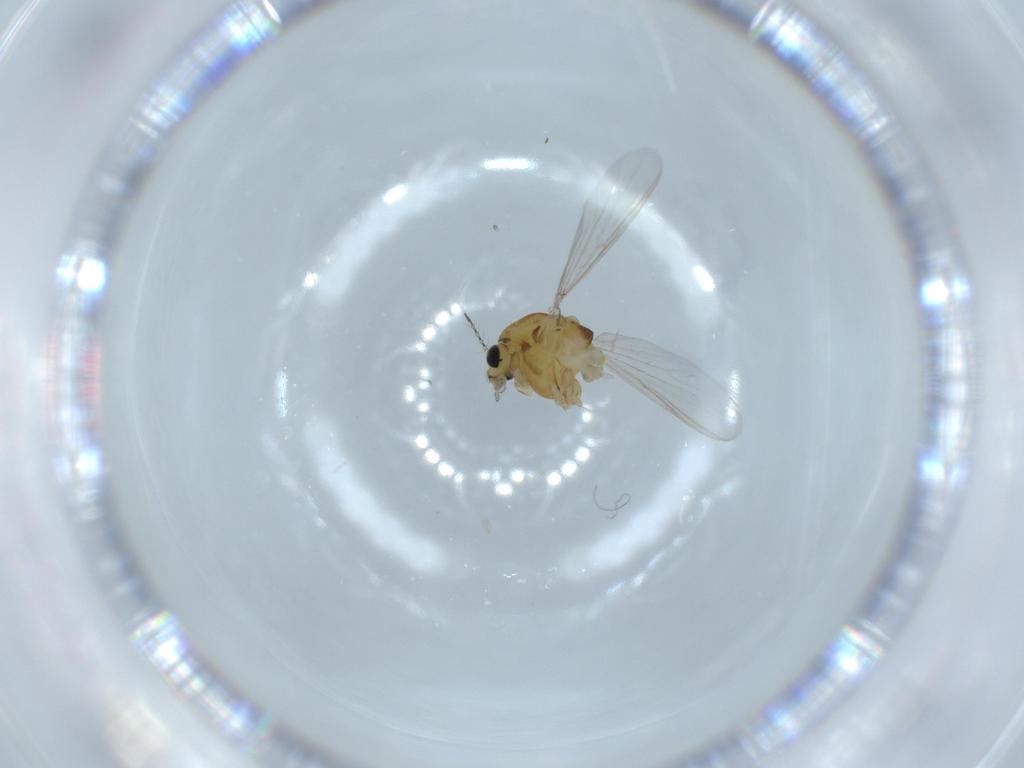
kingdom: Animalia
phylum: Arthropoda
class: Insecta
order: Diptera
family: Chironomidae
